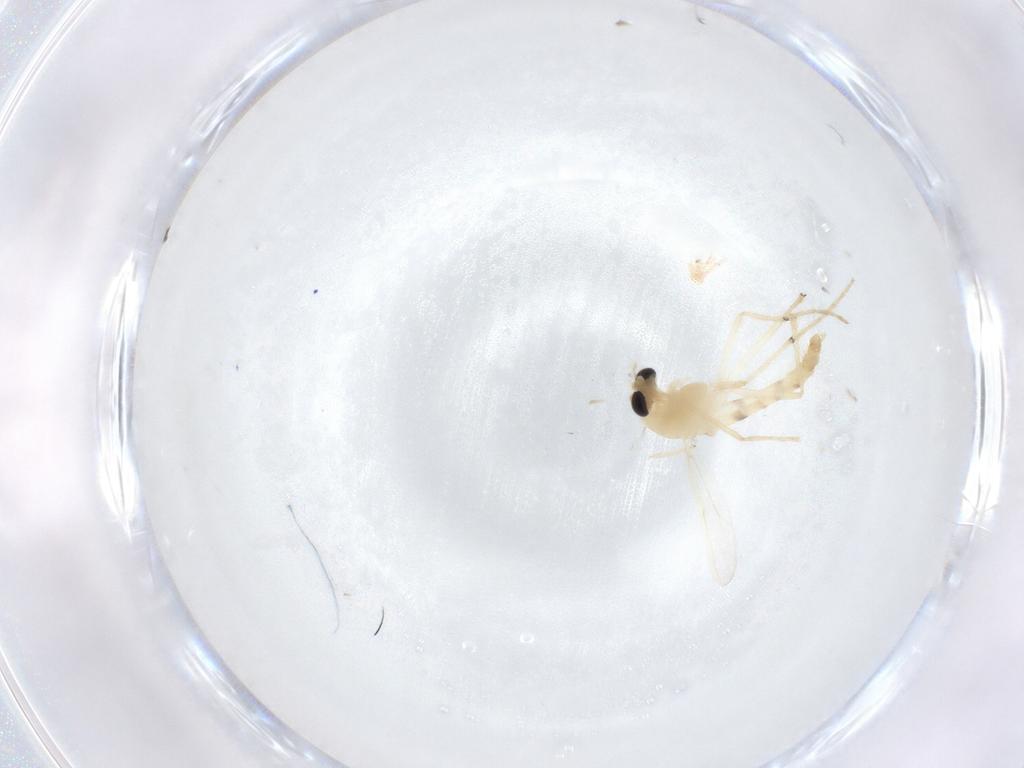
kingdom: Animalia
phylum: Arthropoda
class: Insecta
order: Diptera
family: Chironomidae
